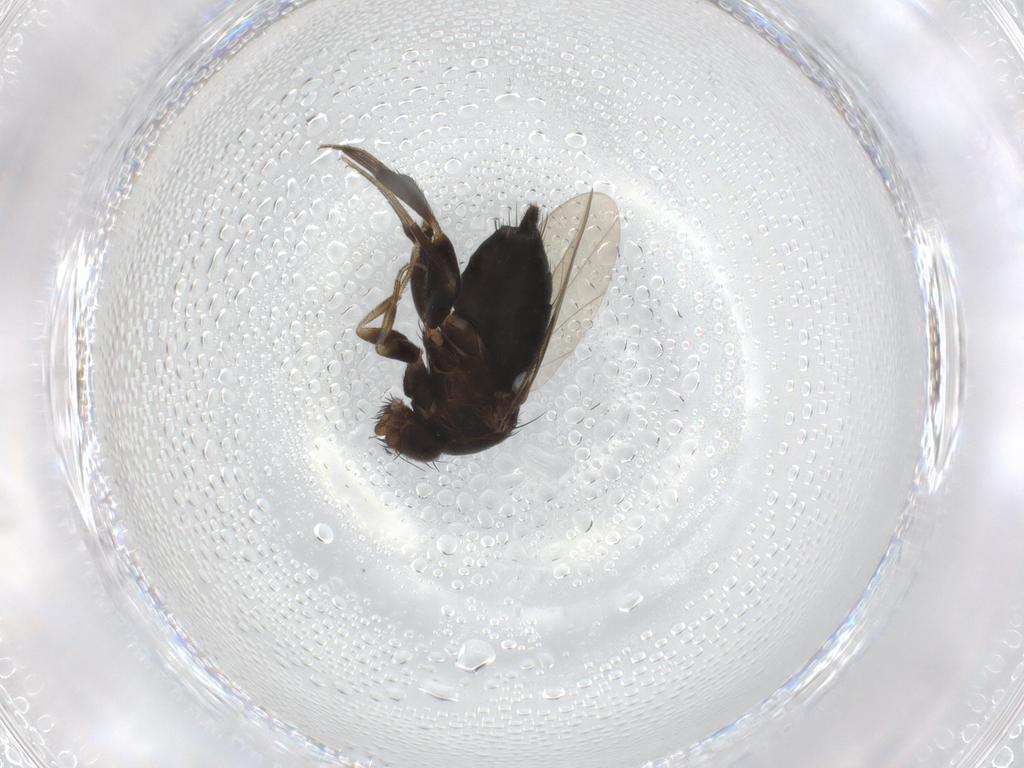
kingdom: Animalia
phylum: Arthropoda
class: Insecta
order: Diptera
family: Phoridae
